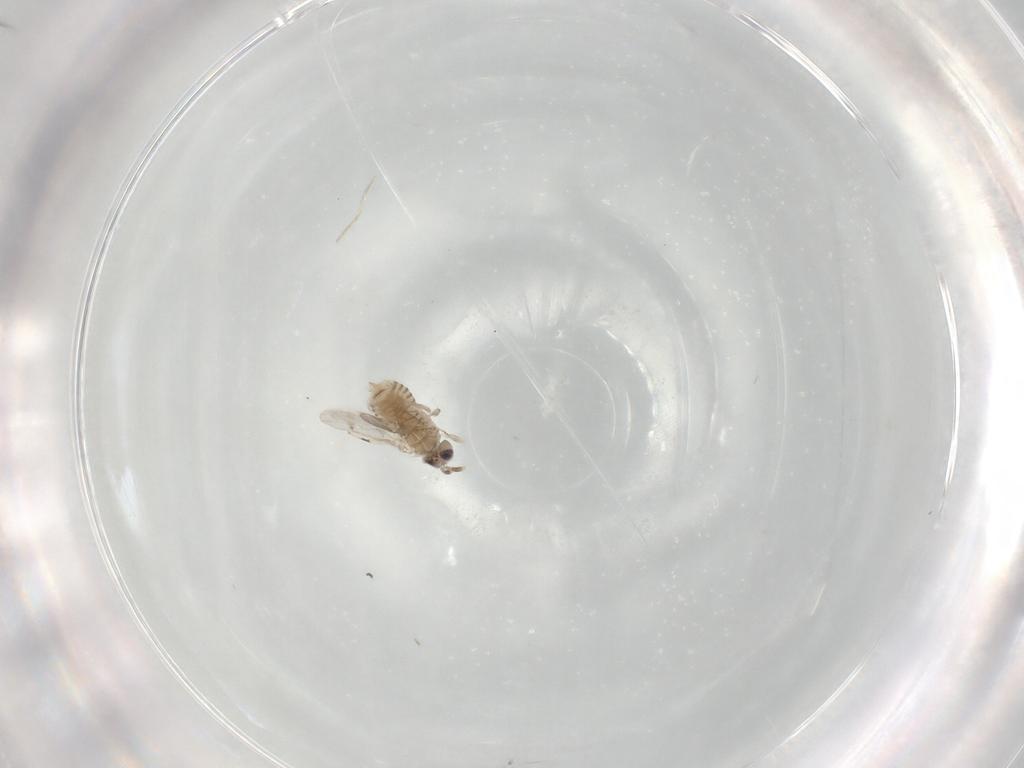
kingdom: Animalia
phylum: Arthropoda
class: Insecta
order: Hymenoptera
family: Aphelinidae
